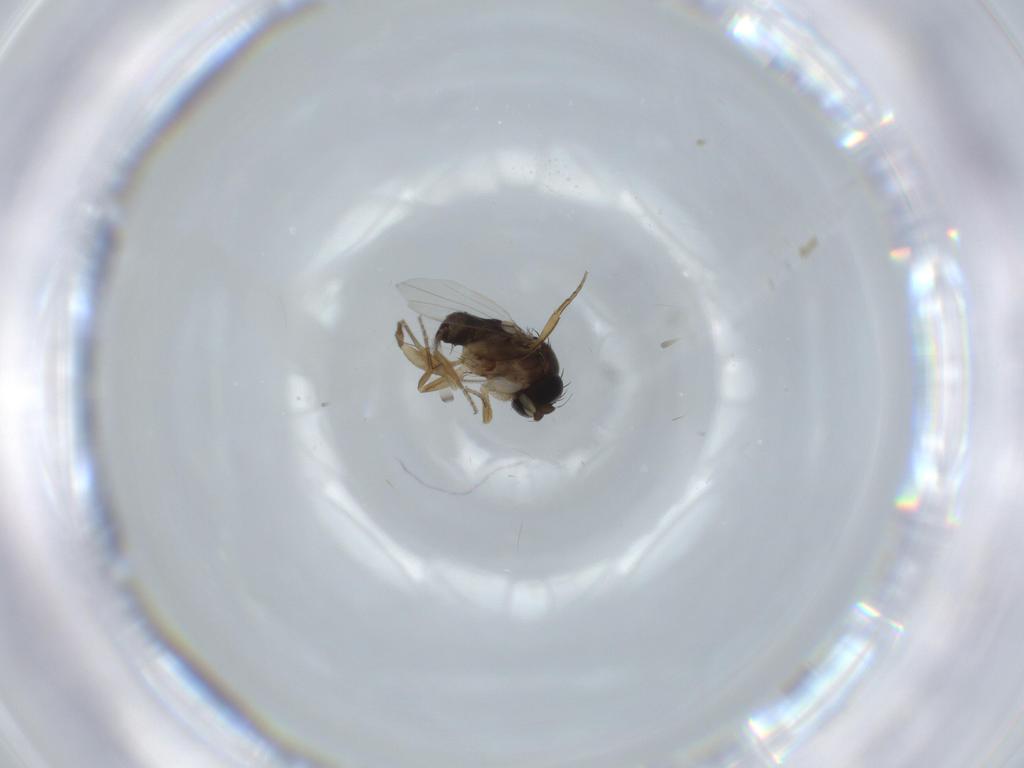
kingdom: Animalia
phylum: Arthropoda
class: Insecta
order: Diptera
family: Cecidomyiidae
